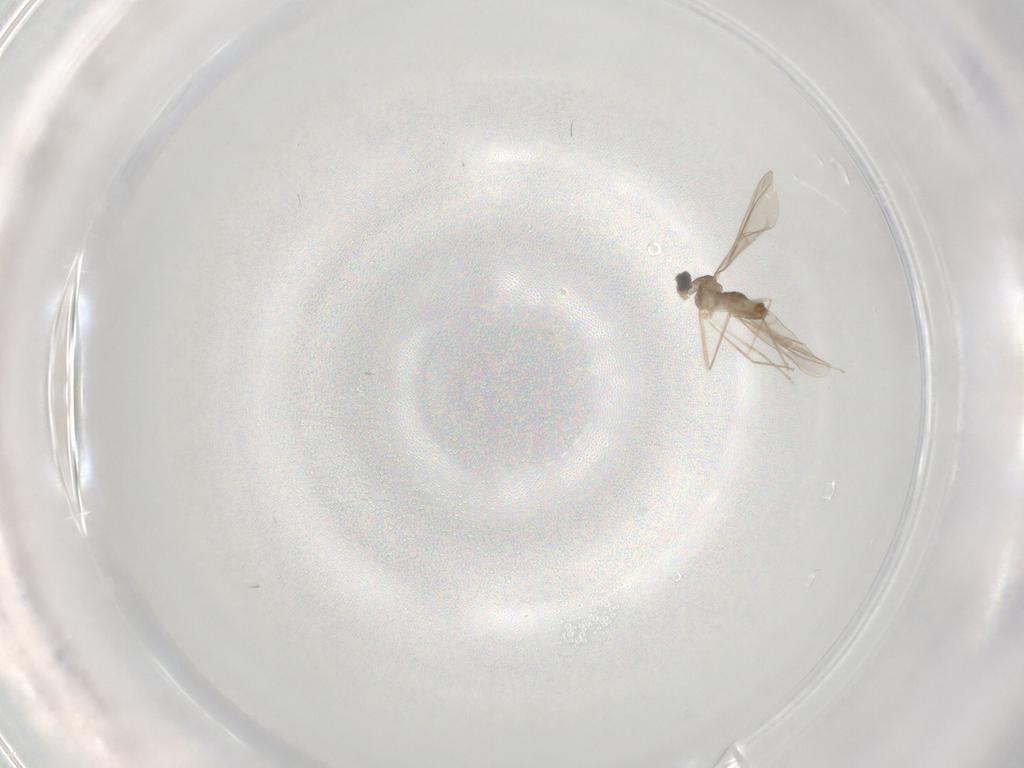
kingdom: Animalia
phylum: Arthropoda
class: Insecta
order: Diptera
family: Cecidomyiidae
